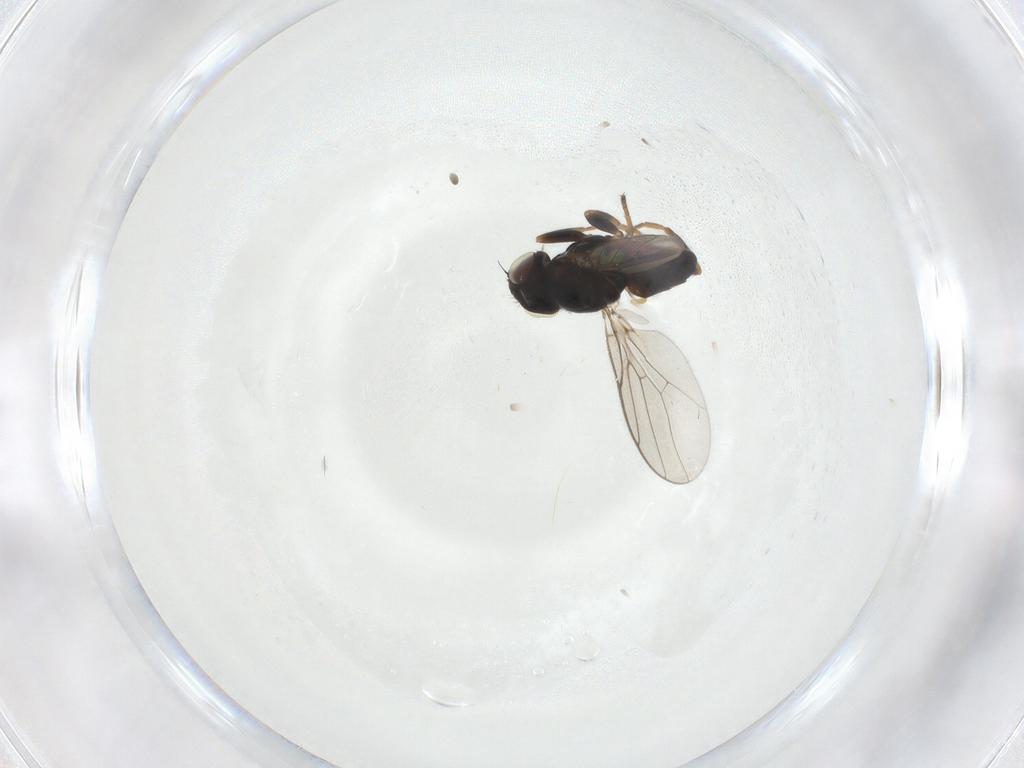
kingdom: Animalia
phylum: Arthropoda
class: Insecta
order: Diptera
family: Chloropidae
